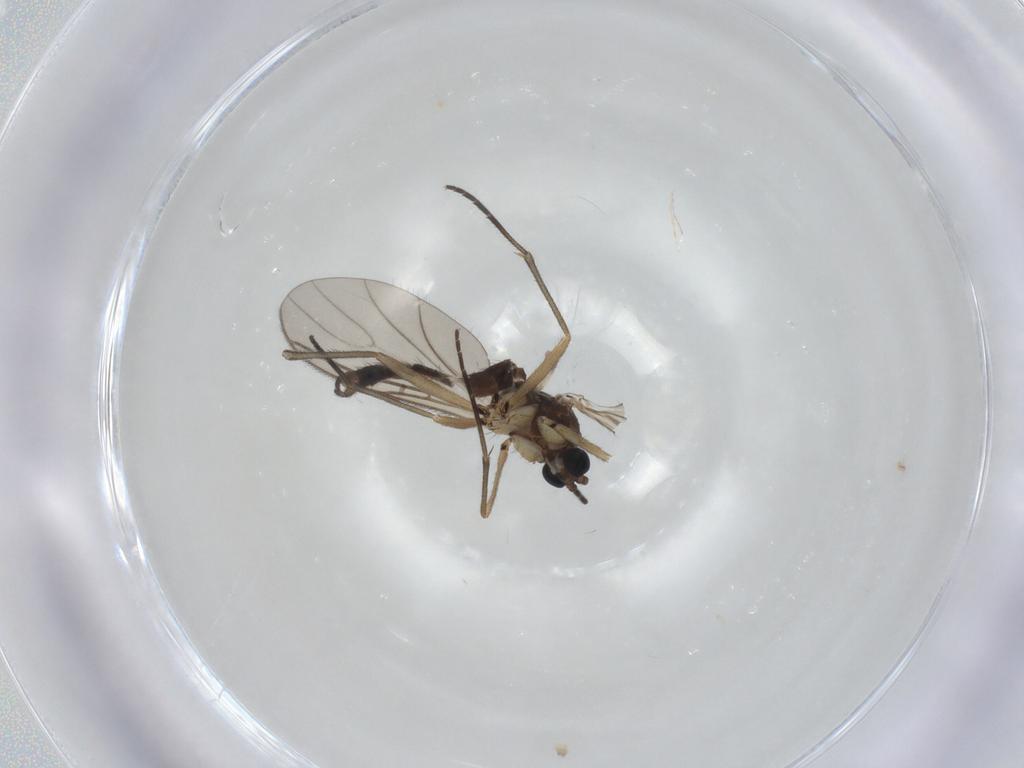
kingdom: Animalia
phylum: Arthropoda
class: Insecta
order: Diptera
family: Sciaridae
